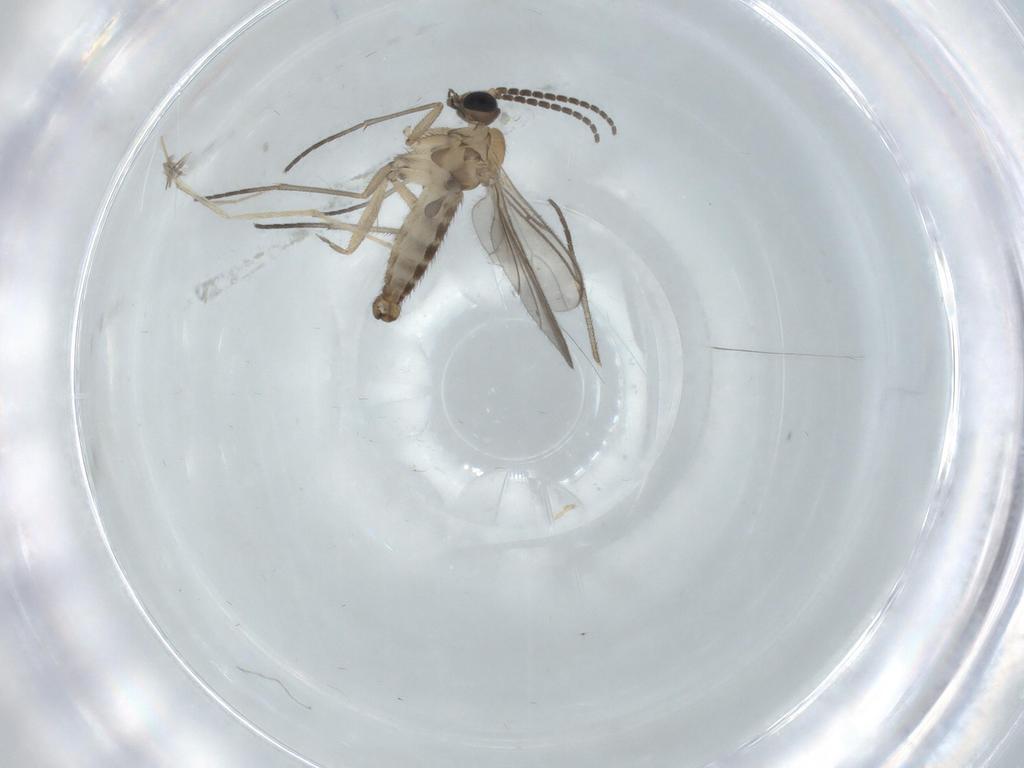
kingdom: Animalia
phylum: Arthropoda
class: Insecta
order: Diptera
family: Sciaridae
